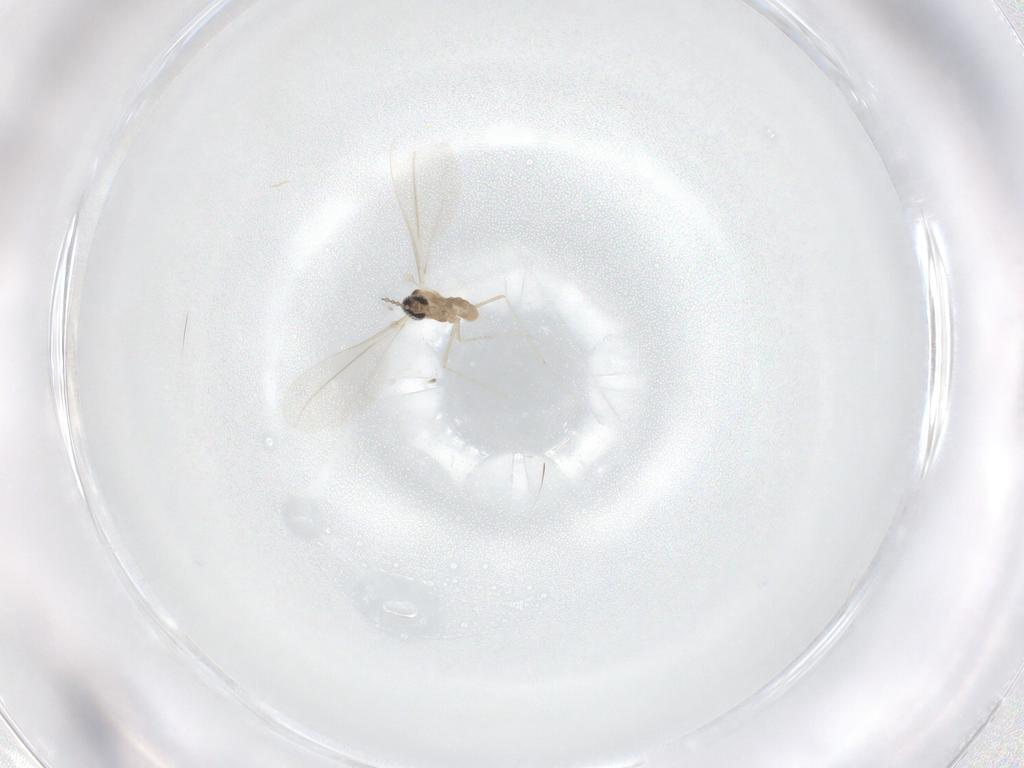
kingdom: Animalia
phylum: Arthropoda
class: Insecta
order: Diptera
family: Cecidomyiidae
